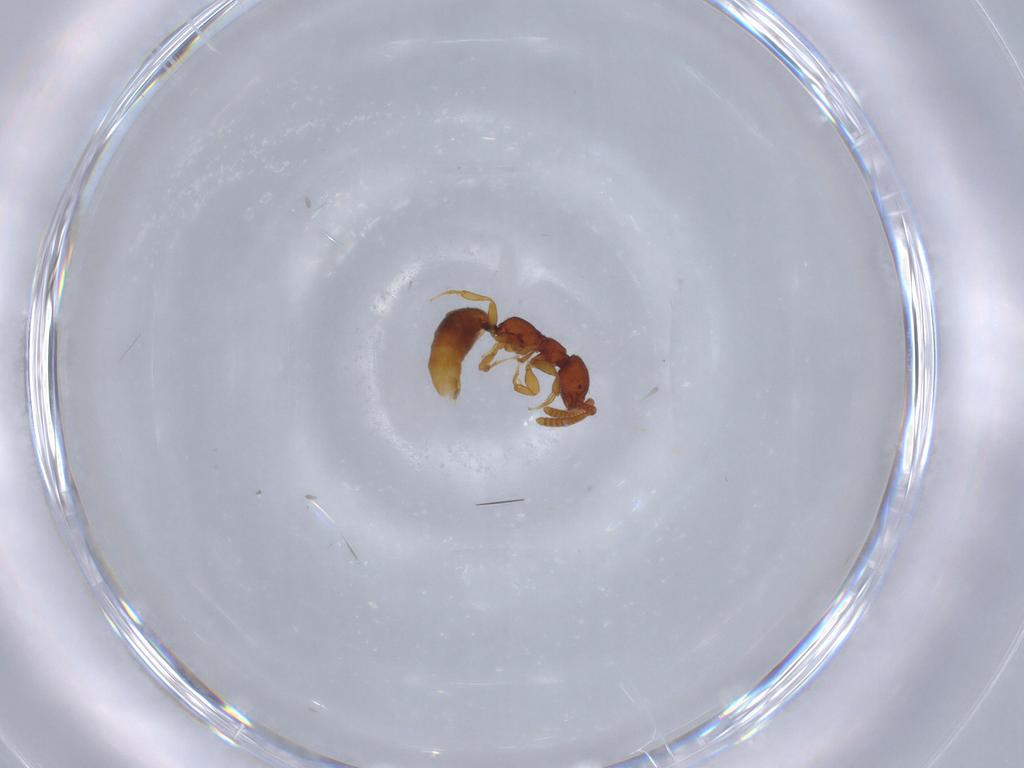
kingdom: Animalia
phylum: Arthropoda
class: Insecta
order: Hymenoptera
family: Bethylidae
